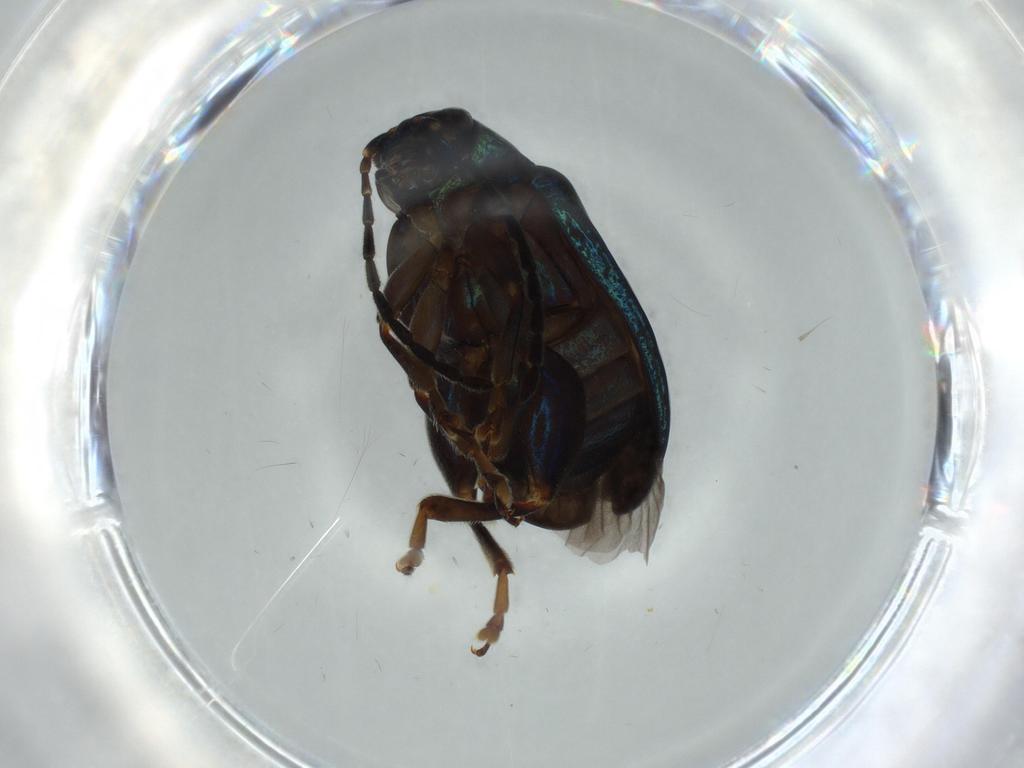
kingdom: Animalia
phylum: Arthropoda
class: Insecta
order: Coleoptera
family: Chrysomelidae
